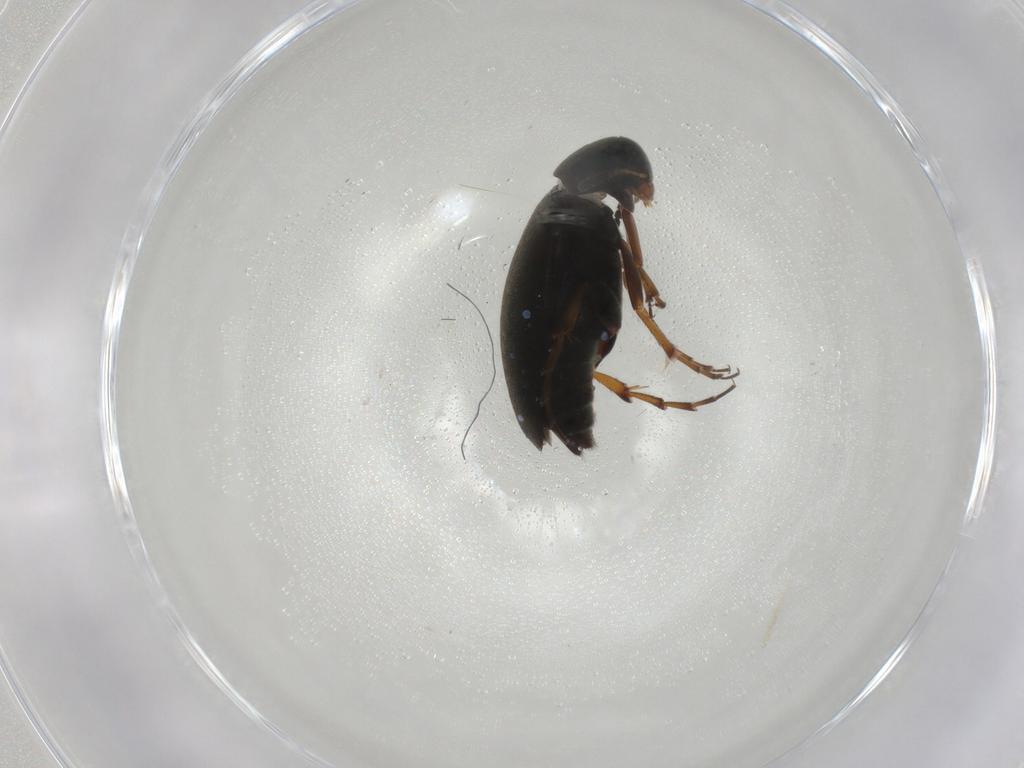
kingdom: Animalia
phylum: Arthropoda
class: Insecta
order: Coleoptera
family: Scraptiidae
